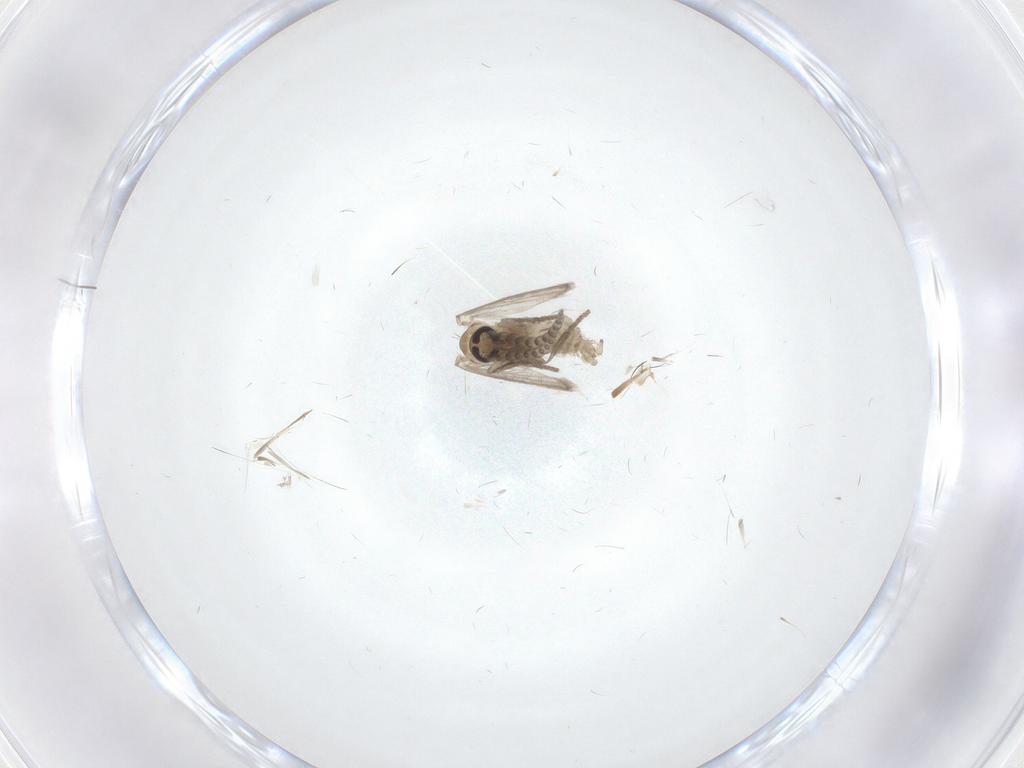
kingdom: Animalia
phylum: Arthropoda
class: Insecta
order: Diptera
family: Psychodidae
